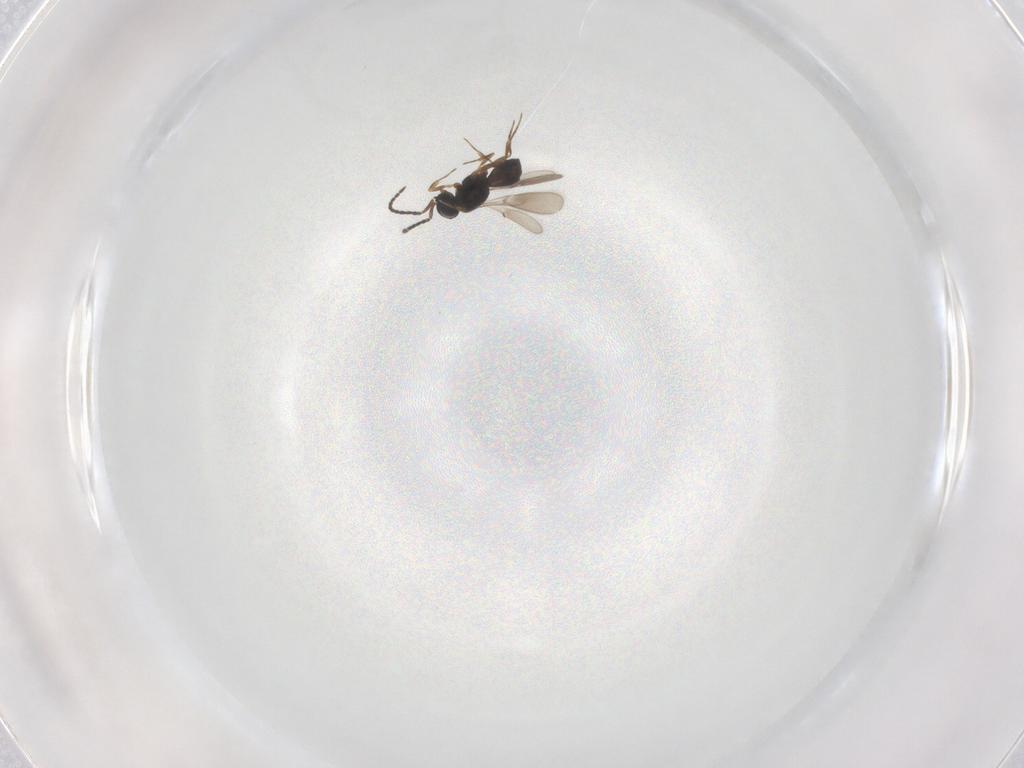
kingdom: Animalia
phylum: Arthropoda
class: Insecta
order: Hymenoptera
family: Scelionidae
